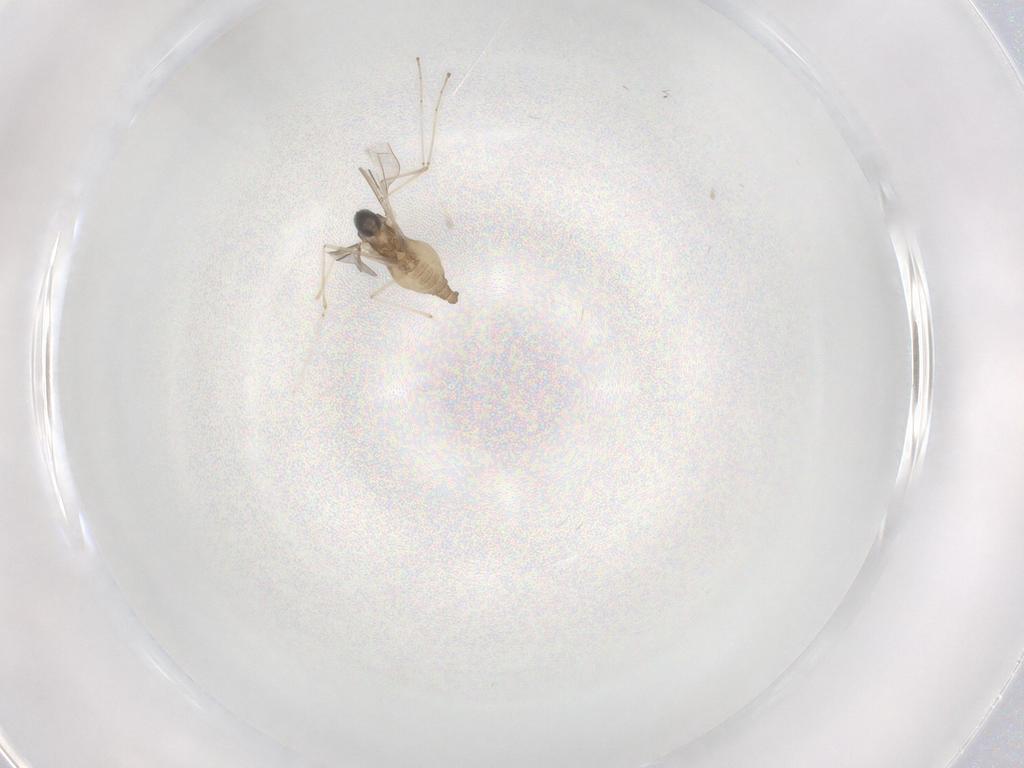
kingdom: Animalia
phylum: Arthropoda
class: Insecta
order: Diptera
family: Cecidomyiidae
